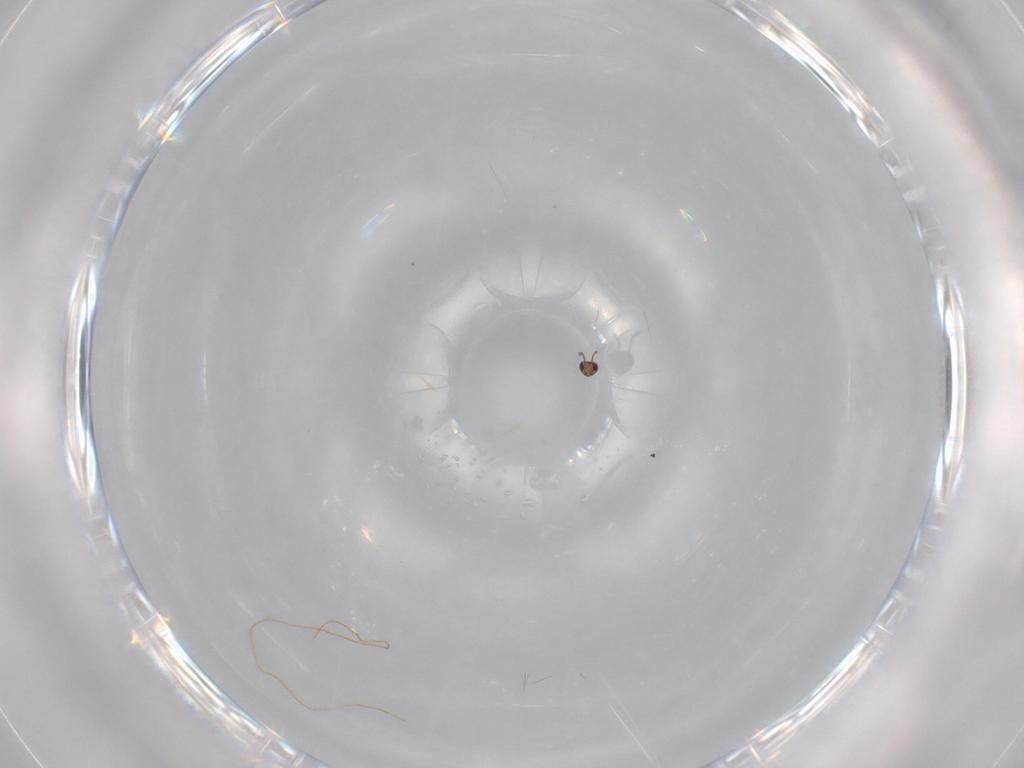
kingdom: Animalia
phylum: Arthropoda
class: Insecta
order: Hymenoptera
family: Mymaridae
